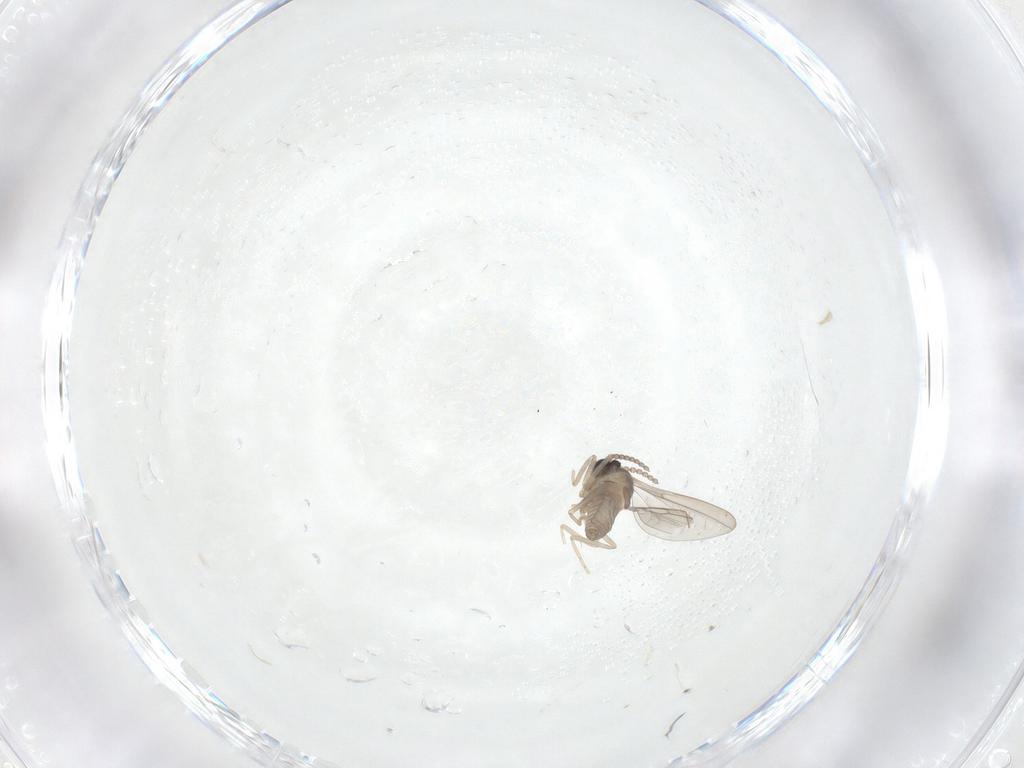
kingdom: Animalia
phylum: Arthropoda
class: Insecta
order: Diptera
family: Cecidomyiidae
